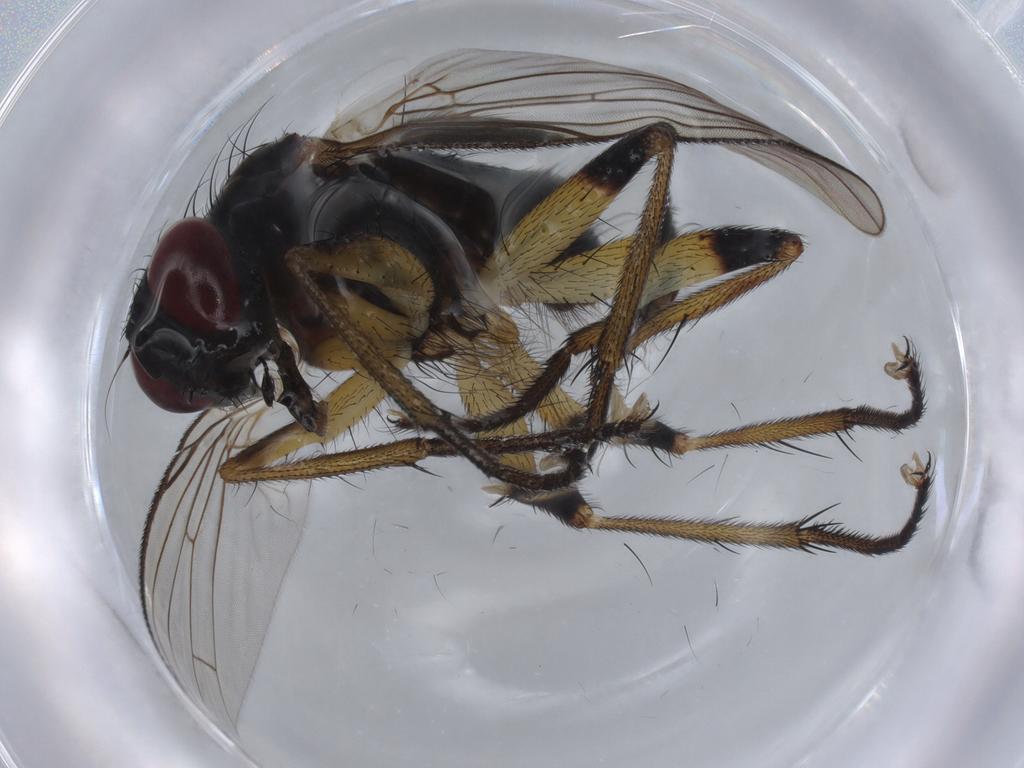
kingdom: Animalia
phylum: Arthropoda
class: Insecta
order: Diptera
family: Muscidae
